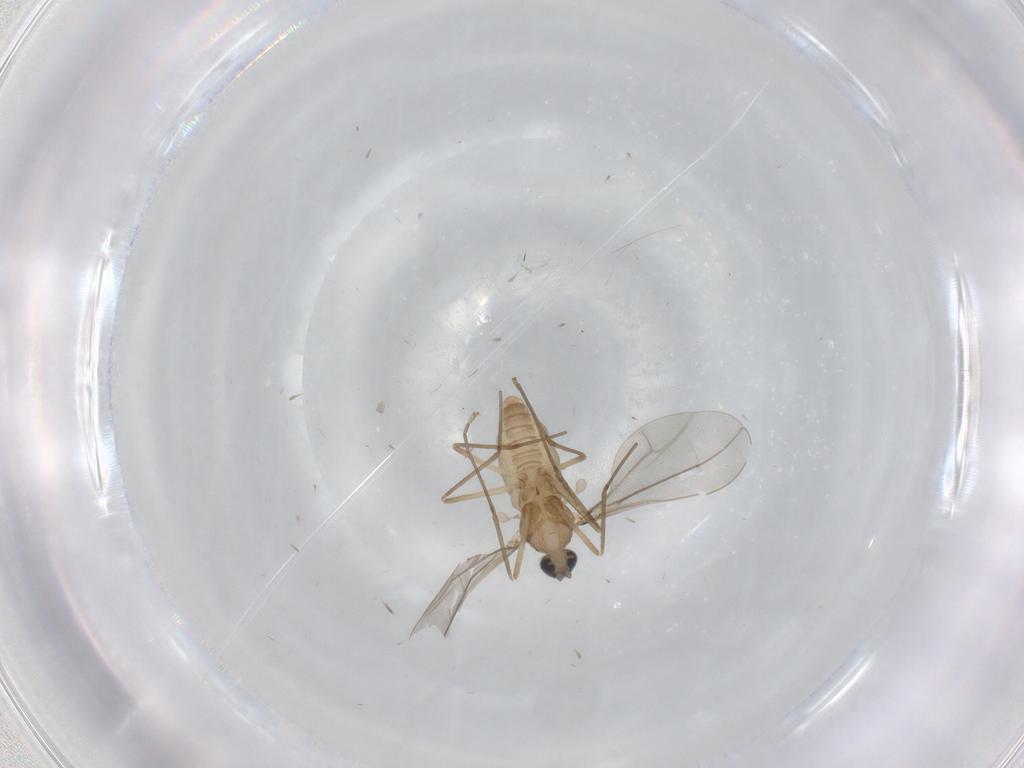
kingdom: Animalia
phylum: Arthropoda
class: Insecta
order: Diptera
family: Cecidomyiidae
